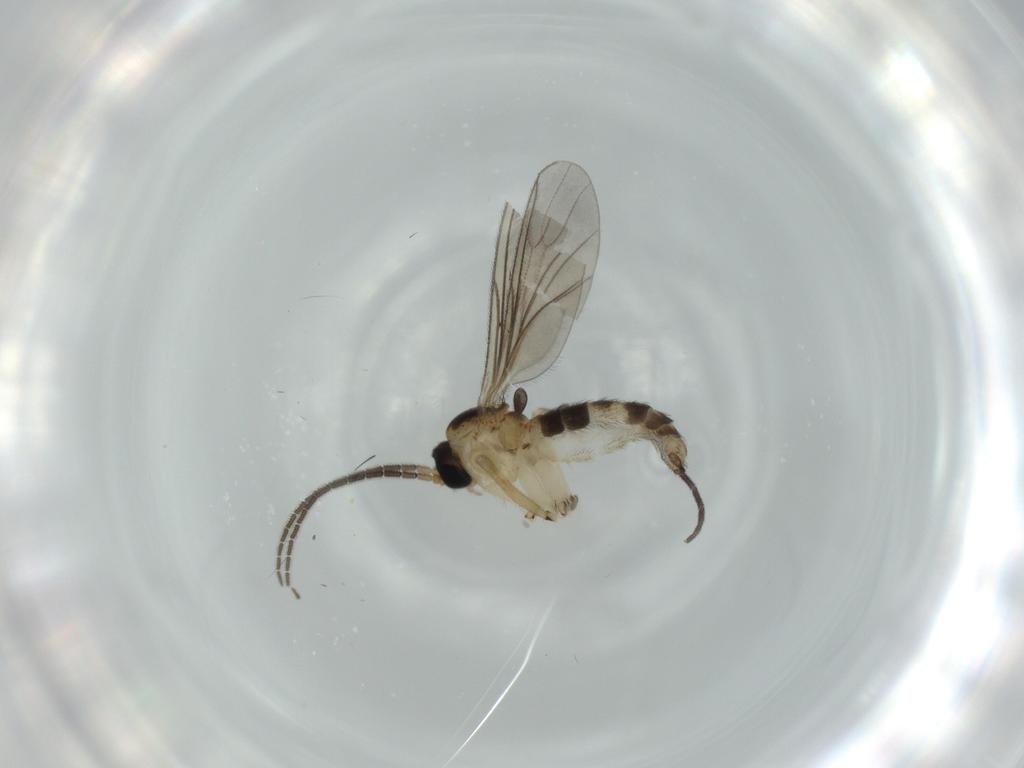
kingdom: Animalia
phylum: Arthropoda
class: Insecta
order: Diptera
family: Sciaridae
